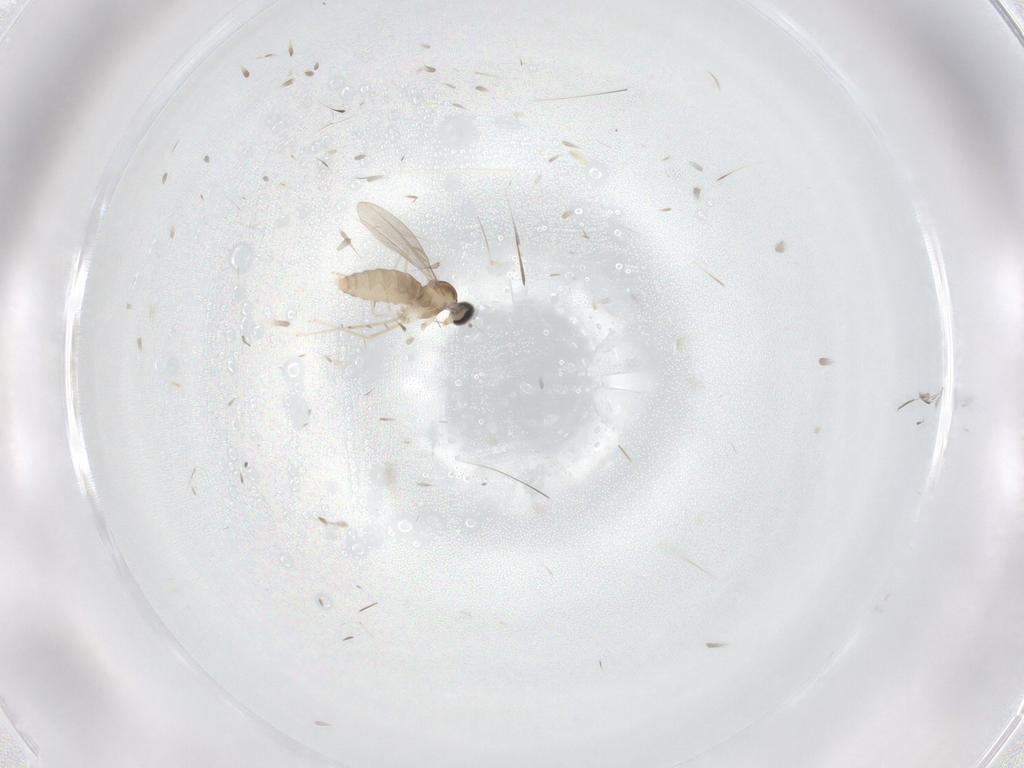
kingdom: Animalia
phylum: Arthropoda
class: Insecta
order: Diptera
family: Cecidomyiidae
